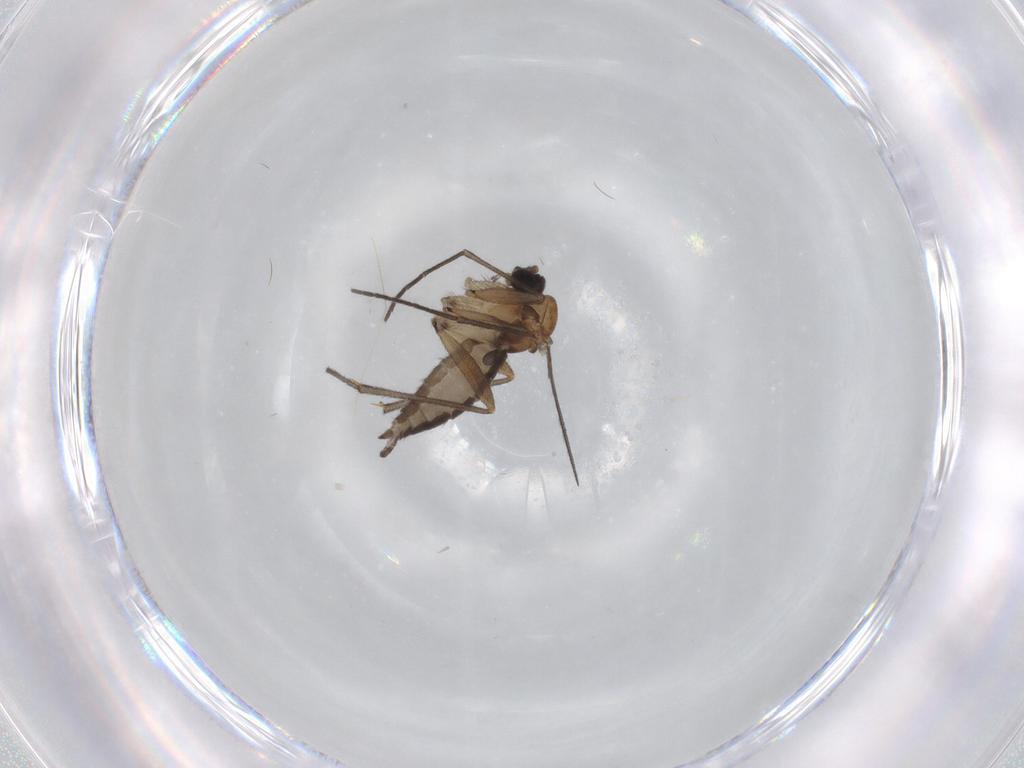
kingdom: Animalia
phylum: Arthropoda
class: Insecta
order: Diptera
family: Sciaridae
